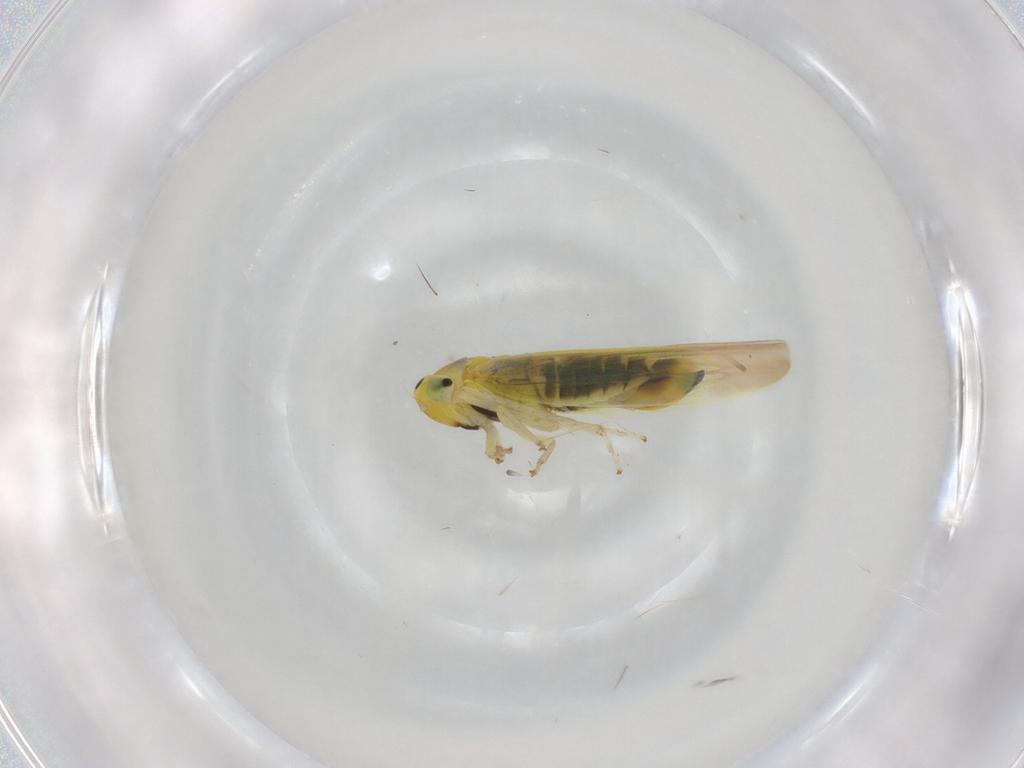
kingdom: Animalia
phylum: Arthropoda
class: Insecta
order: Hemiptera
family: Cicadellidae
